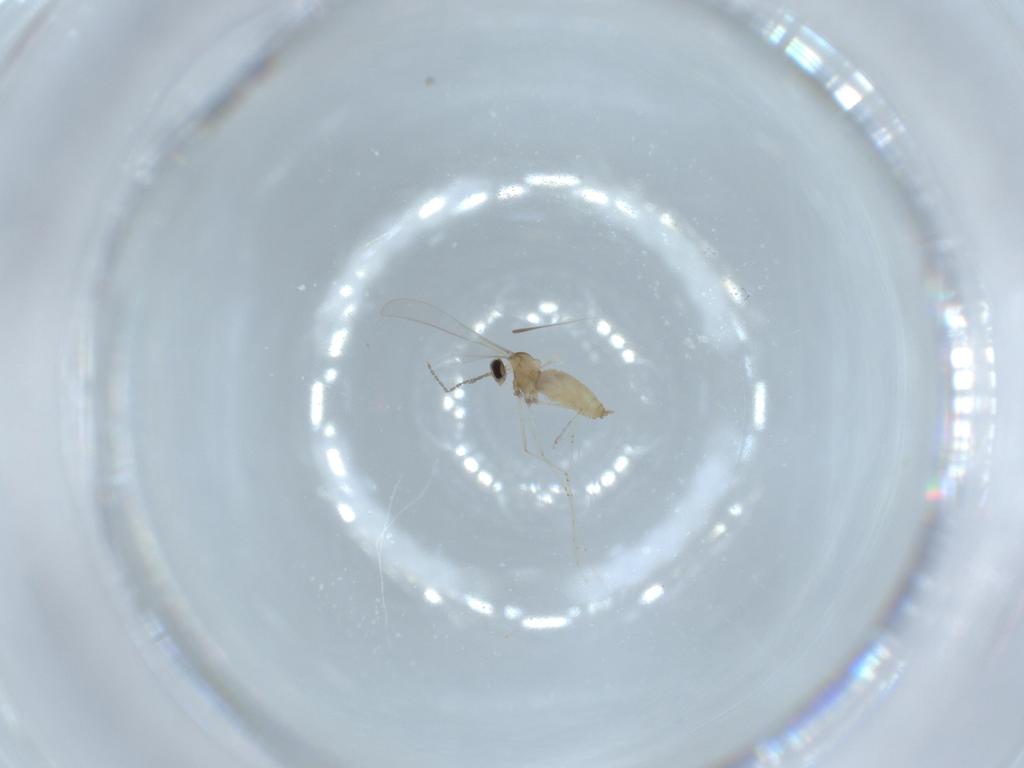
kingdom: Animalia
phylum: Arthropoda
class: Insecta
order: Diptera
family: Cecidomyiidae
